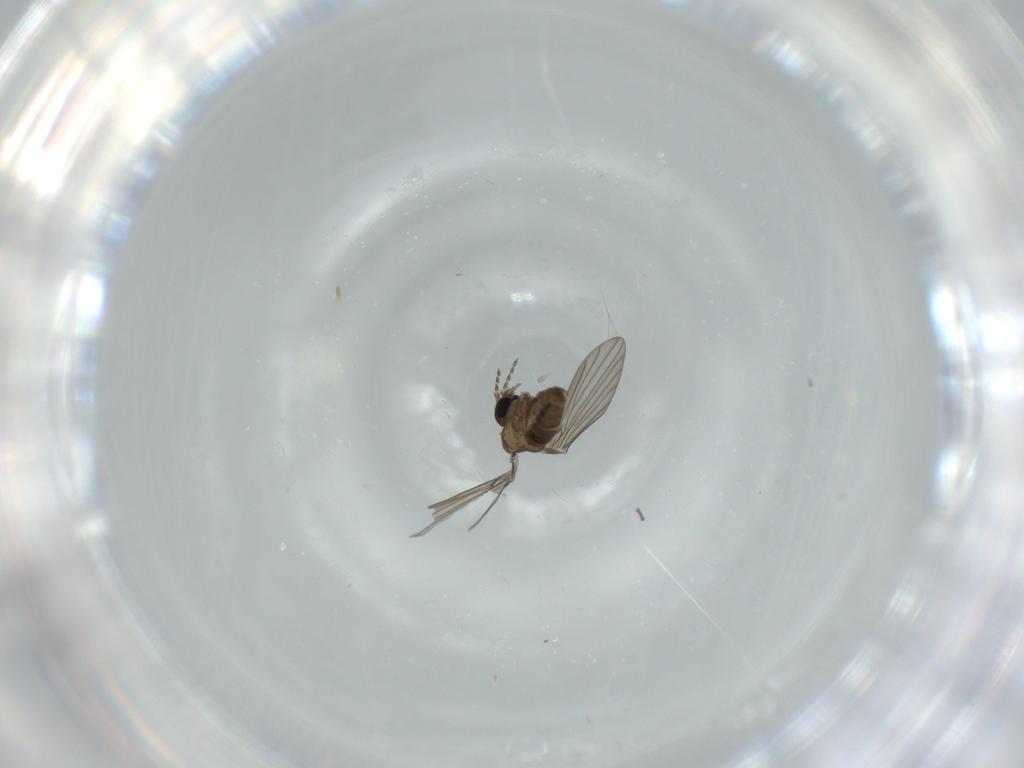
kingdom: Animalia
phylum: Arthropoda
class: Insecta
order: Diptera
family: Psychodidae
